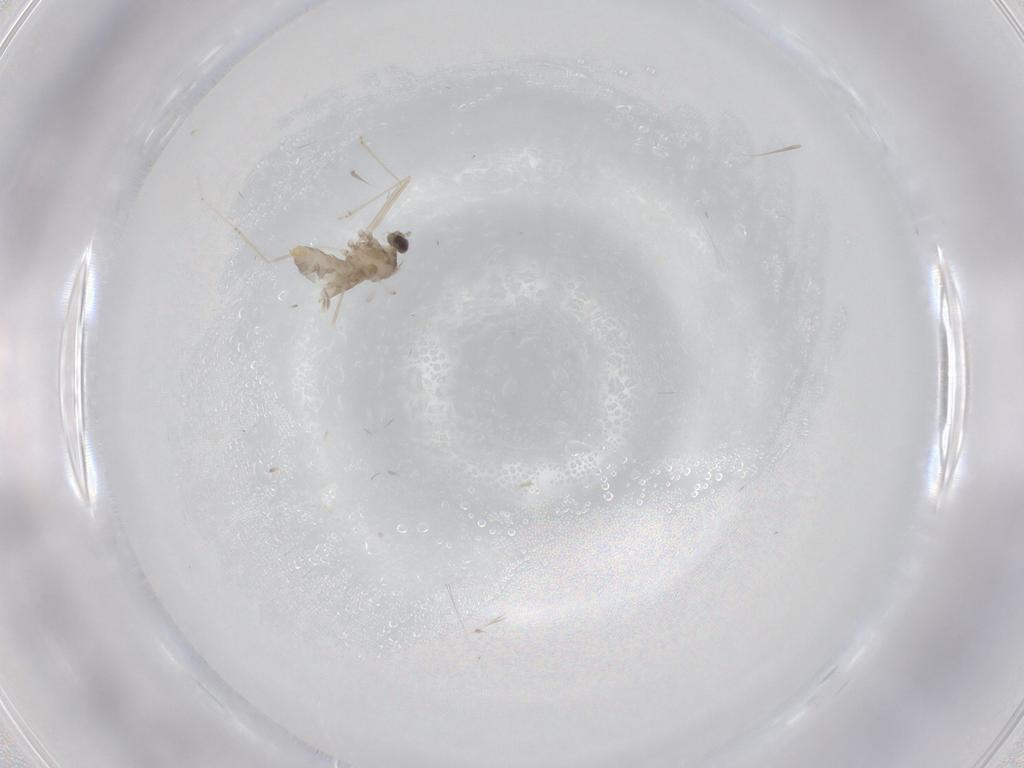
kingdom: Animalia
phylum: Arthropoda
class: Insecta
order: Diptera
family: Cecidomyiidae
